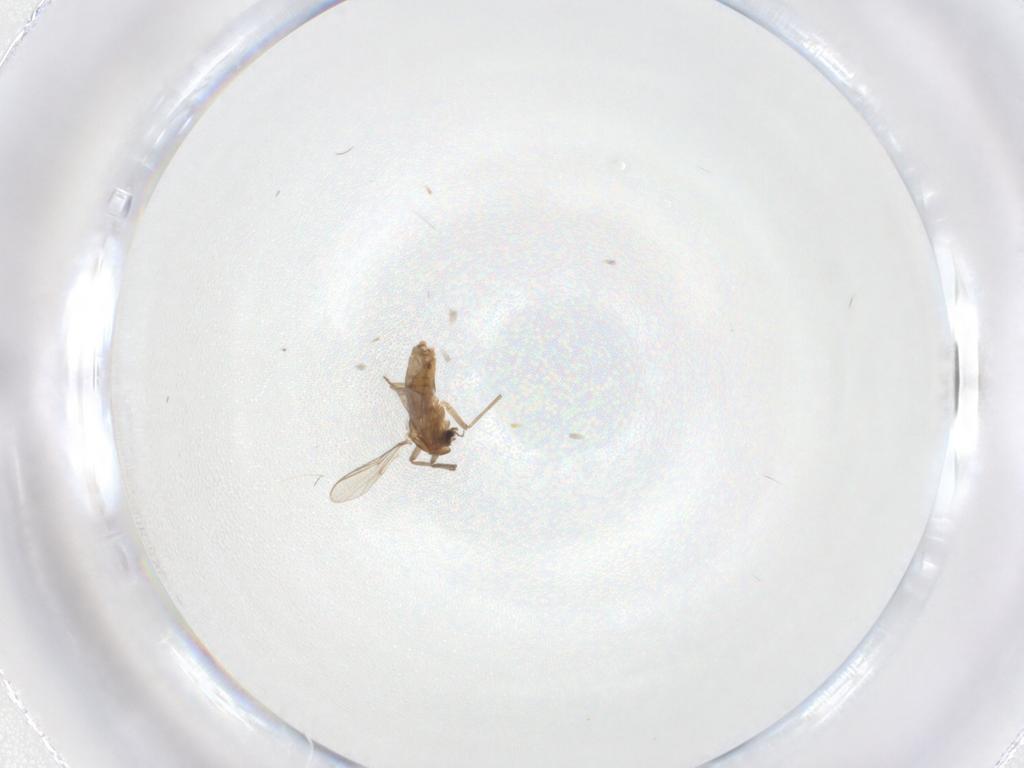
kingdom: Animalia
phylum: Arthropoda
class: Insecta
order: Diptera
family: Chironomidae
